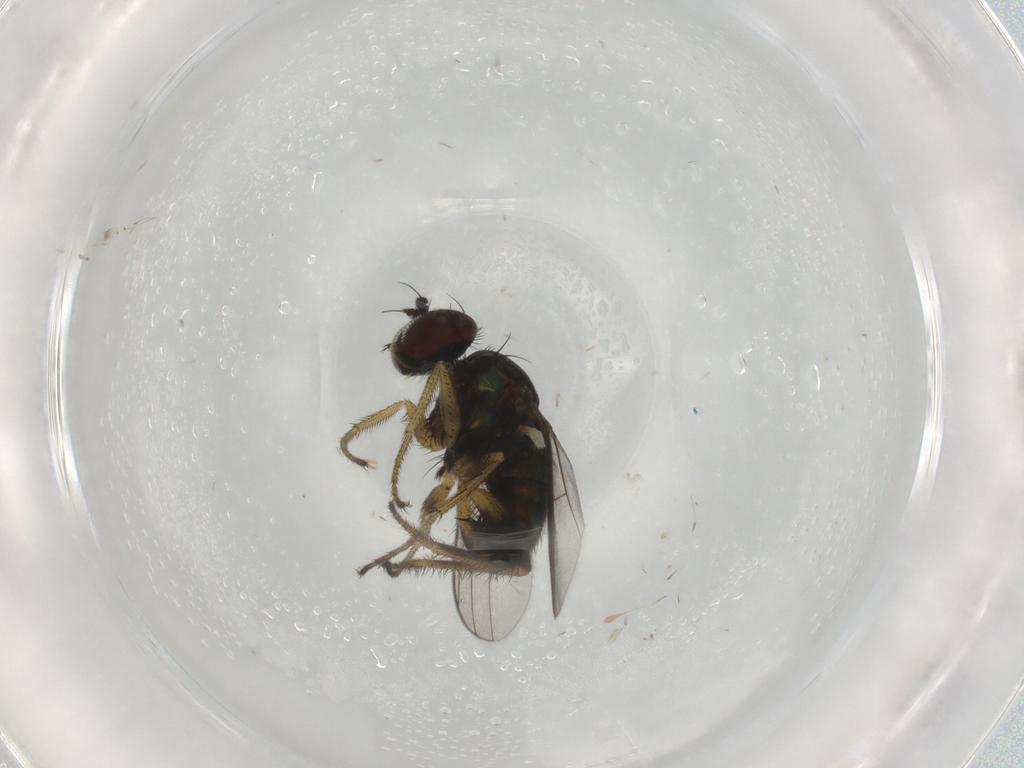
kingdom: Animalia
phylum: Arthropoda
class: Insecta
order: Diptera
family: Dolichopodidae
